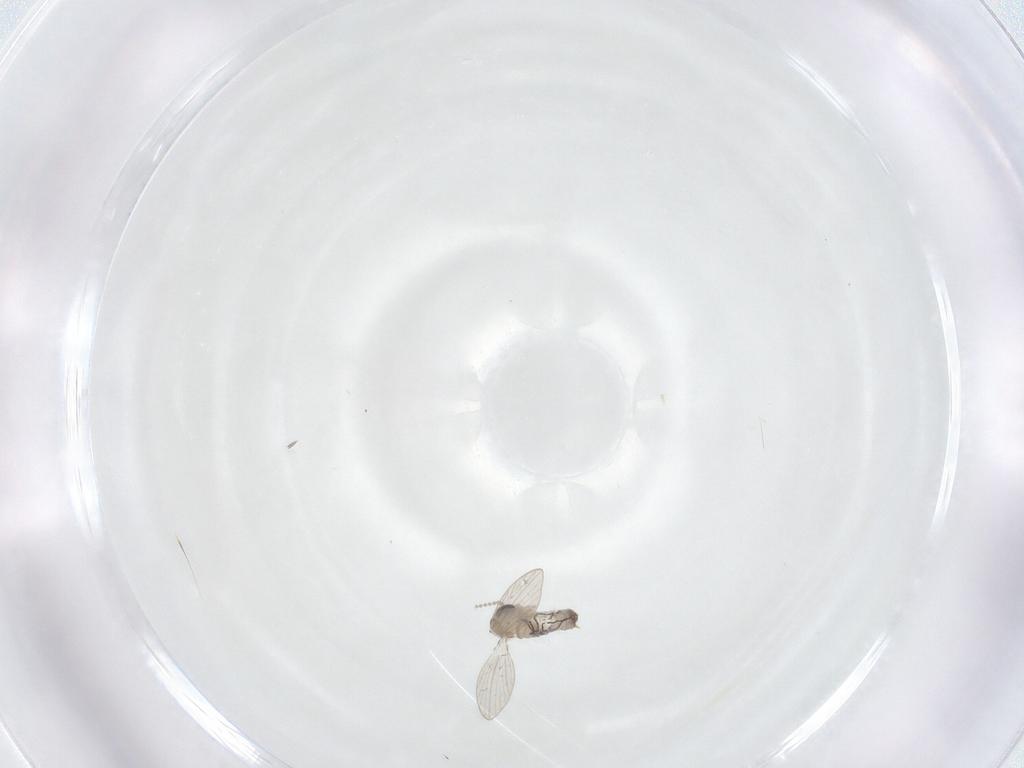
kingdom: Animalia
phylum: Arthropoda
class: Insecta
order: Diptera
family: Psychodidae
